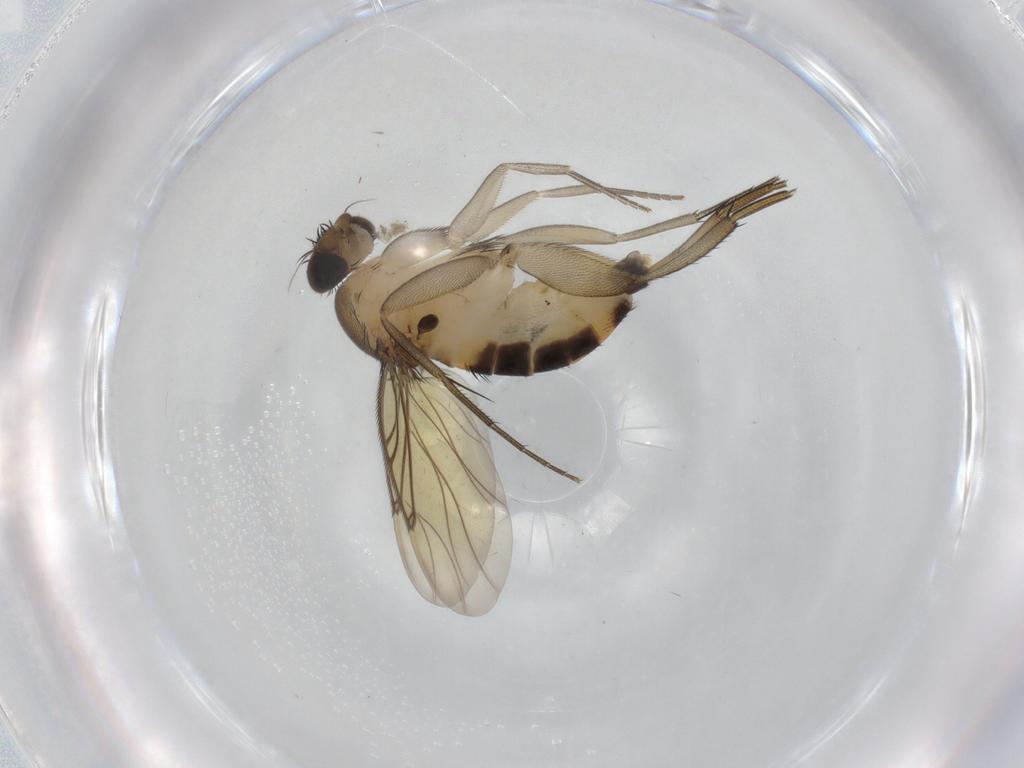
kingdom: Animalia
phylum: Arthropoda
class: Insecta
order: Diptera
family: Phoridae
